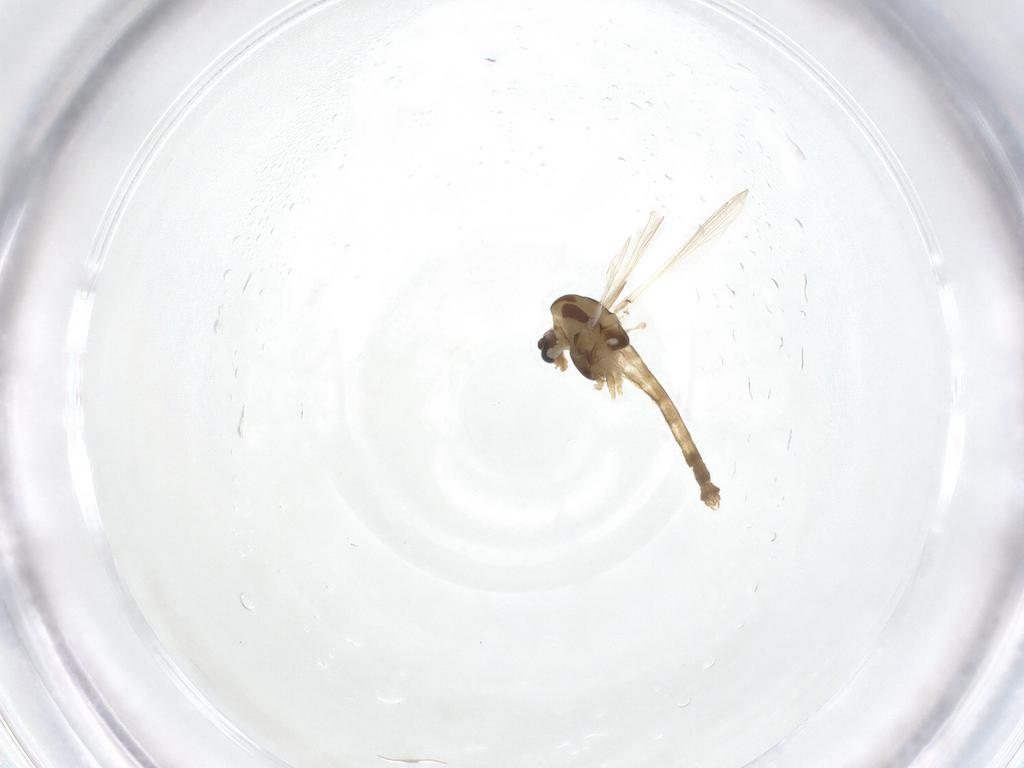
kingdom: Animalia
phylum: Arthropoda
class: Insecta
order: Diptera
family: Chironomidae
